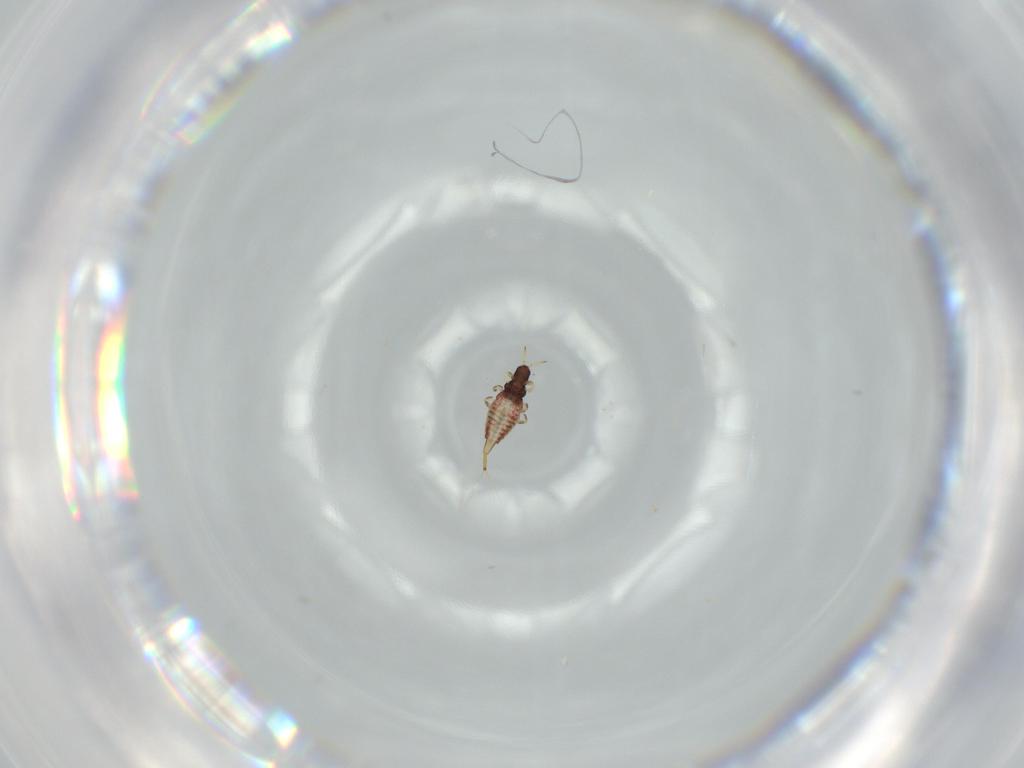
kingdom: Animalia
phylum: Arthropoda
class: Insecta
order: Thysanoptera
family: Phlaeothripidae
